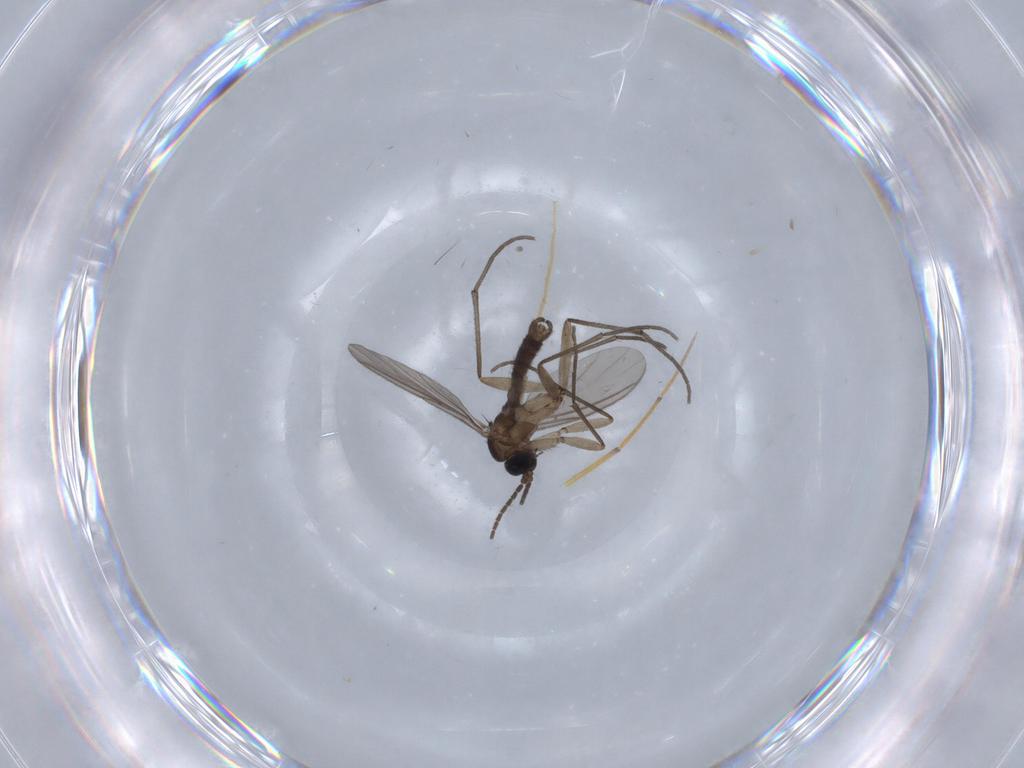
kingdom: Animalia
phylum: Arthropoda
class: Insecta
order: Diptera
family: Sciaridae
